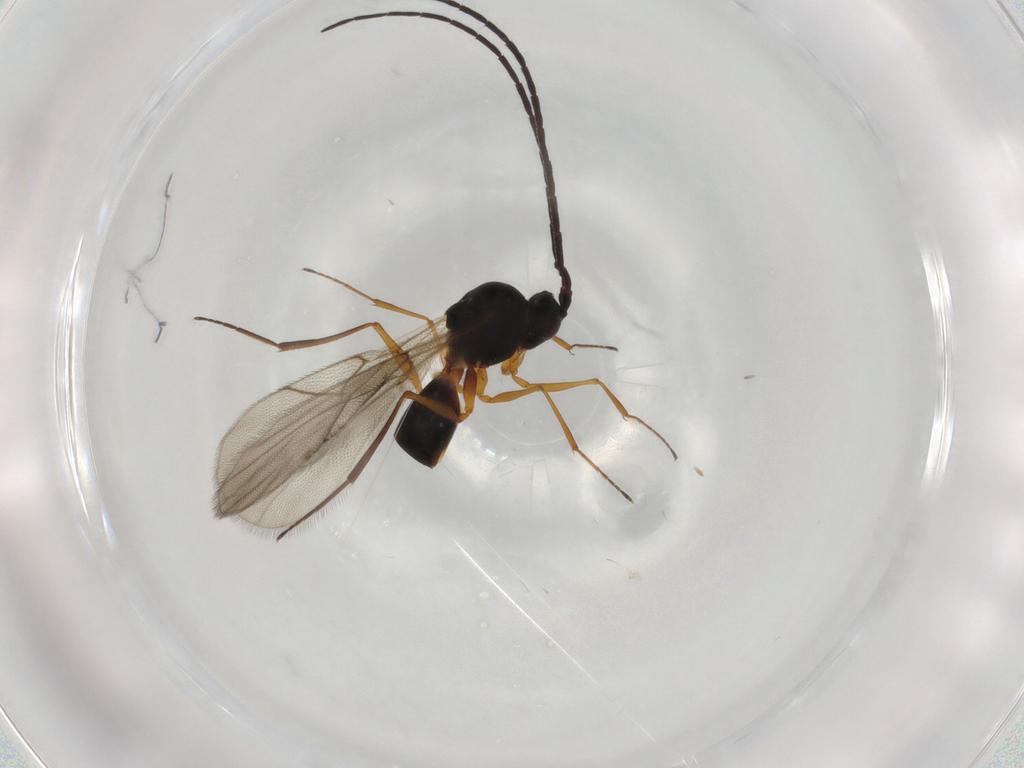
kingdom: Animalia
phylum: Arthropoda
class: Insecta
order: Hymenoptera
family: Figitidae
